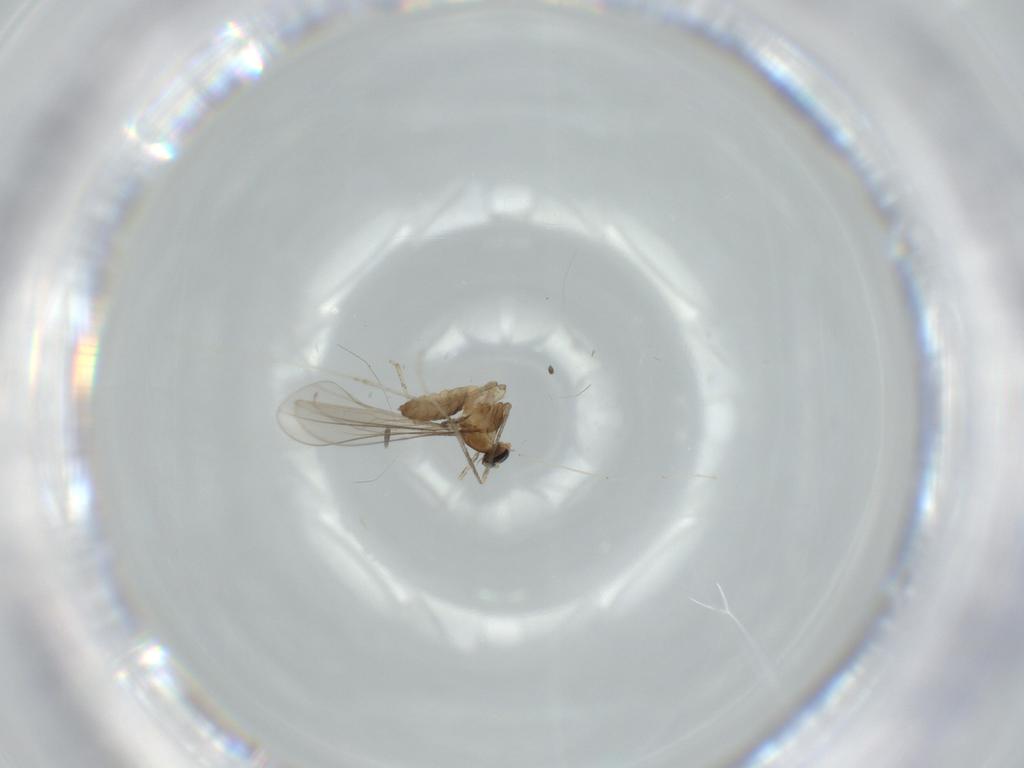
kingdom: Animalia
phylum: Arthropoda
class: Insecta
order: Diptera
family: Cecidomyiidae
